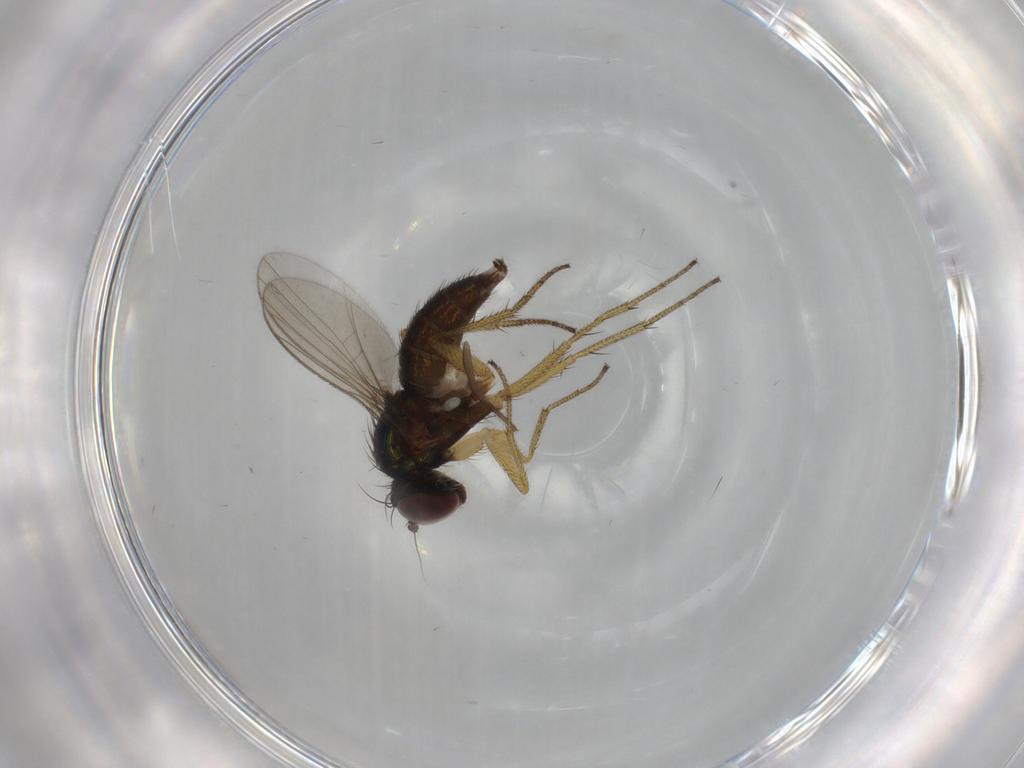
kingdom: Animalia
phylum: Arthropoda
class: Insecta
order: Diptera
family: Dolichopodidae
